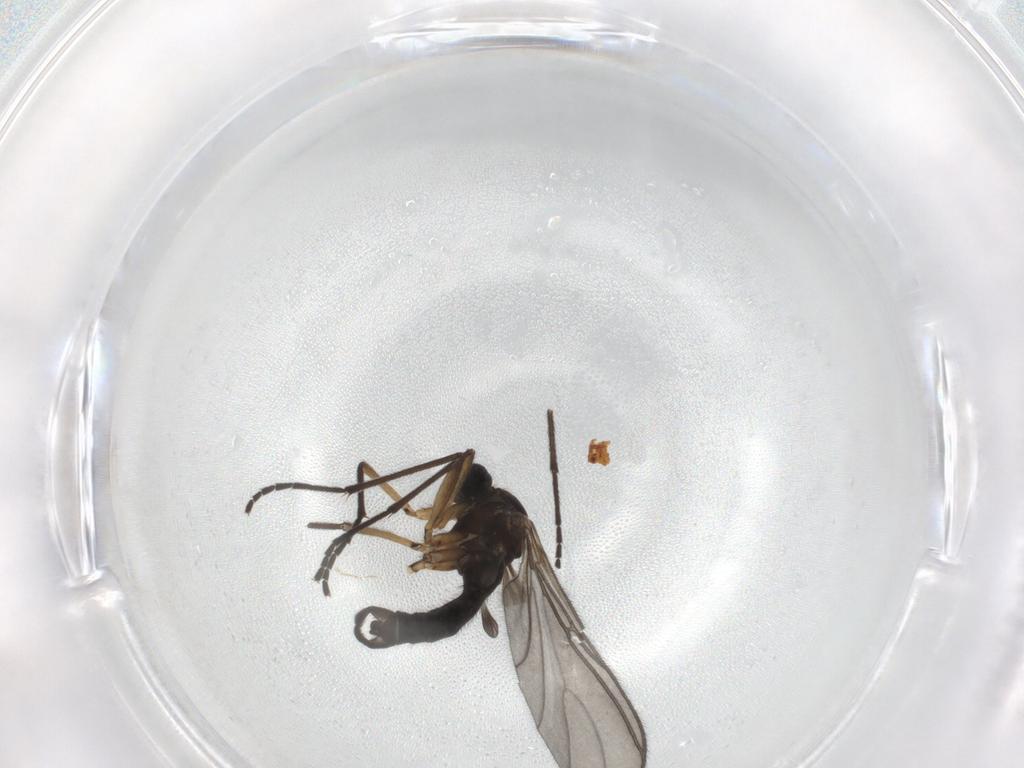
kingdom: Animalia
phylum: Arthropoda
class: Insecta
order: Diptera
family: Sciaridae
